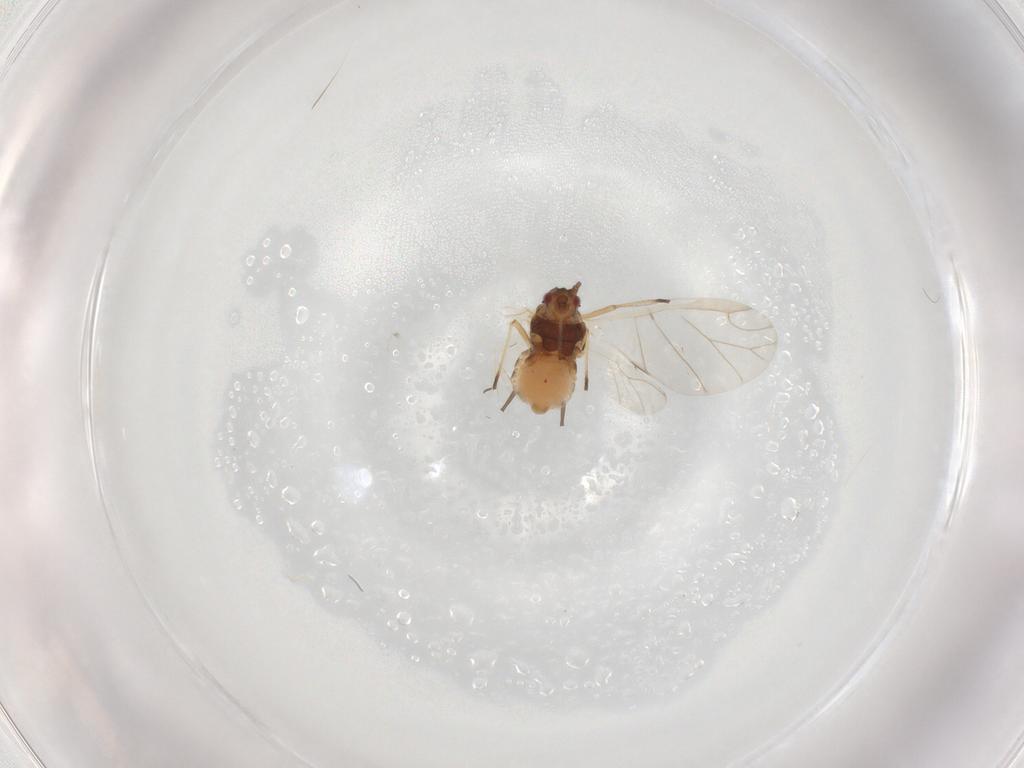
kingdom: Animalia
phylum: Arthropoda
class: Insecta
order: Hemiptera
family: Aphididae
